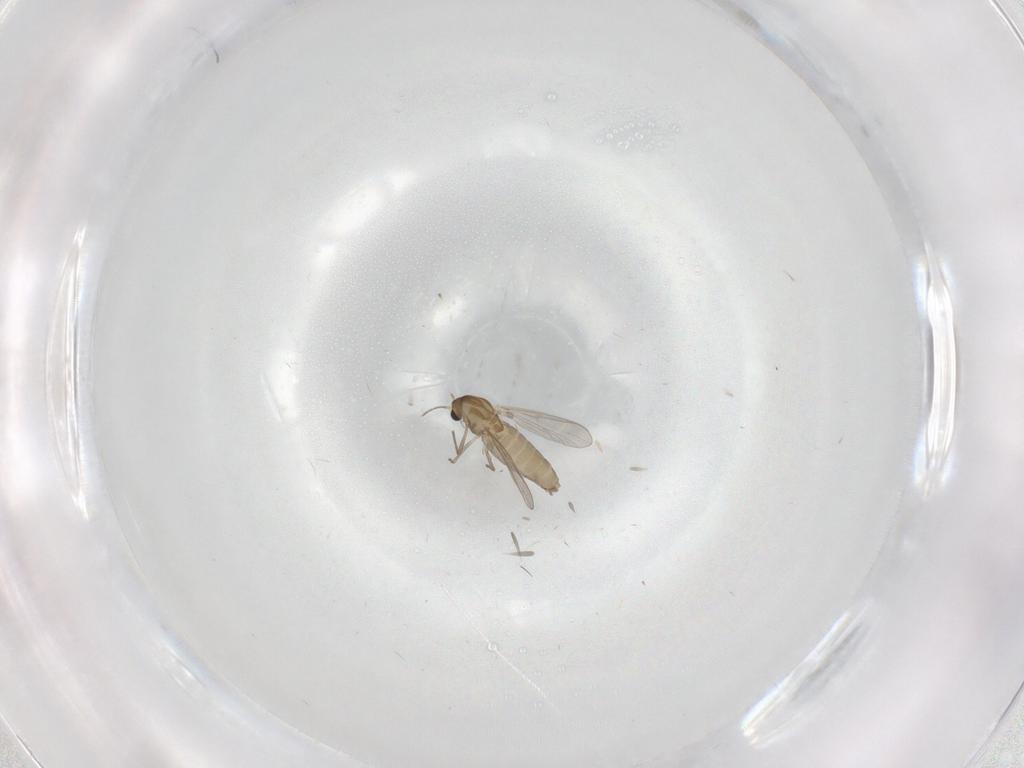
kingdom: Animalia
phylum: Arthropoda
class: Insecta
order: Diptera
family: Chironomidae
